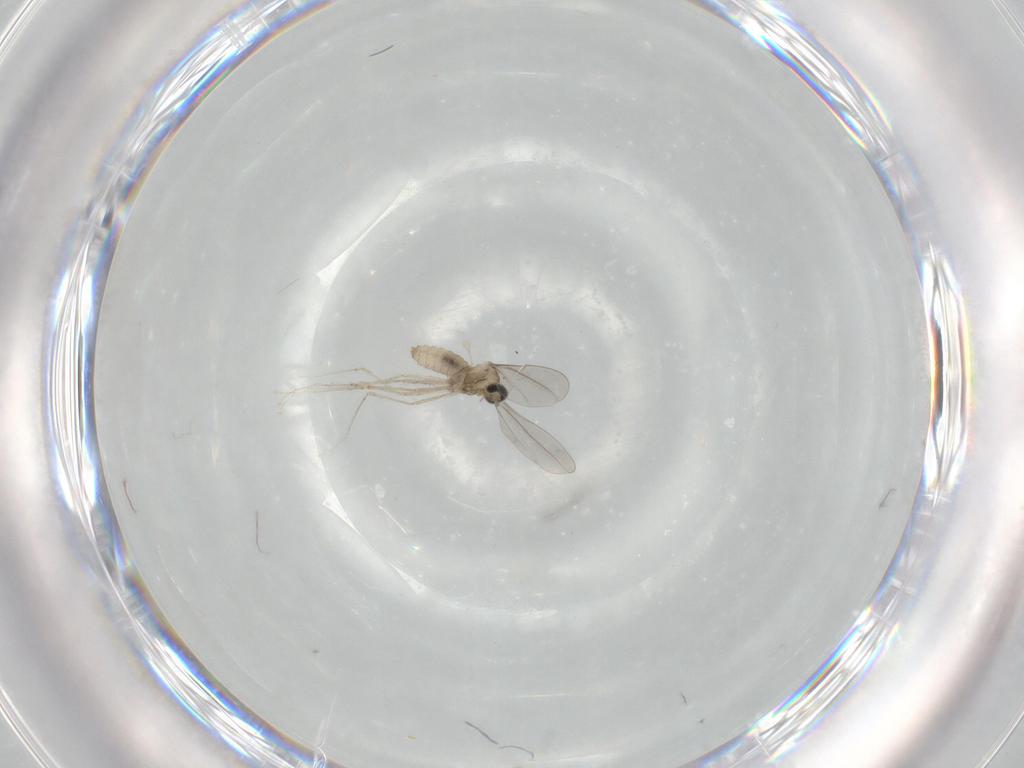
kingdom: Animalia
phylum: Arthropoda
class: Insecta
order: Diptera
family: Cecidomyiidae
